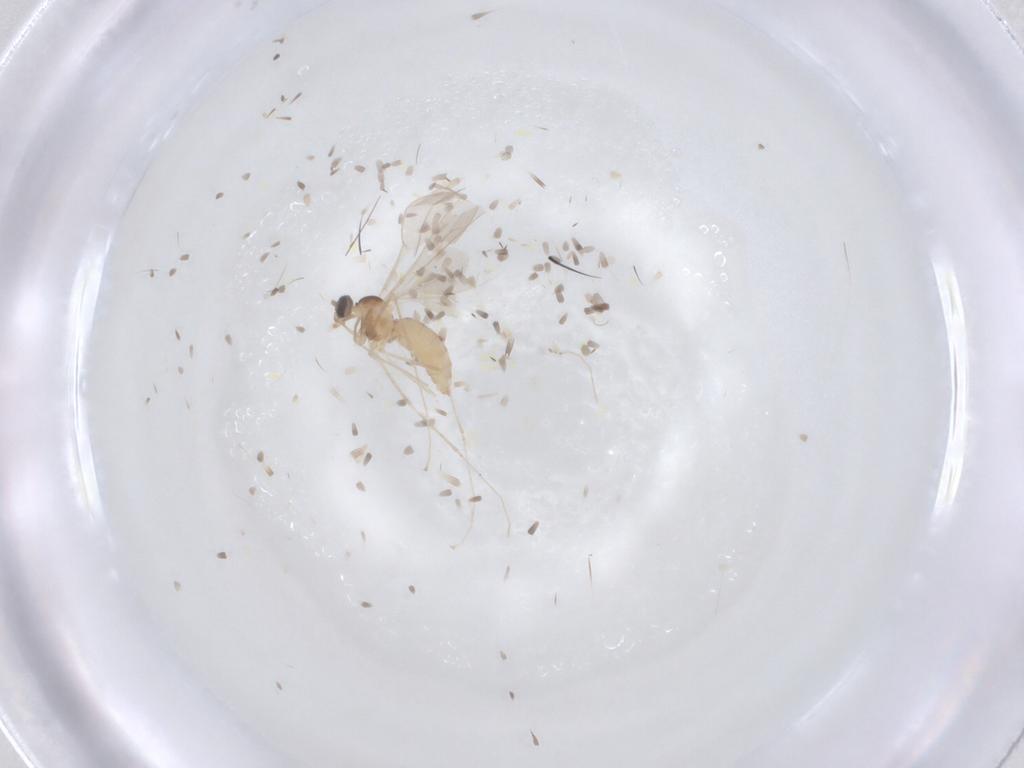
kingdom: Animalia
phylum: Arthropoda
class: Insecta
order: Diptera
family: Cecidomyiidae
